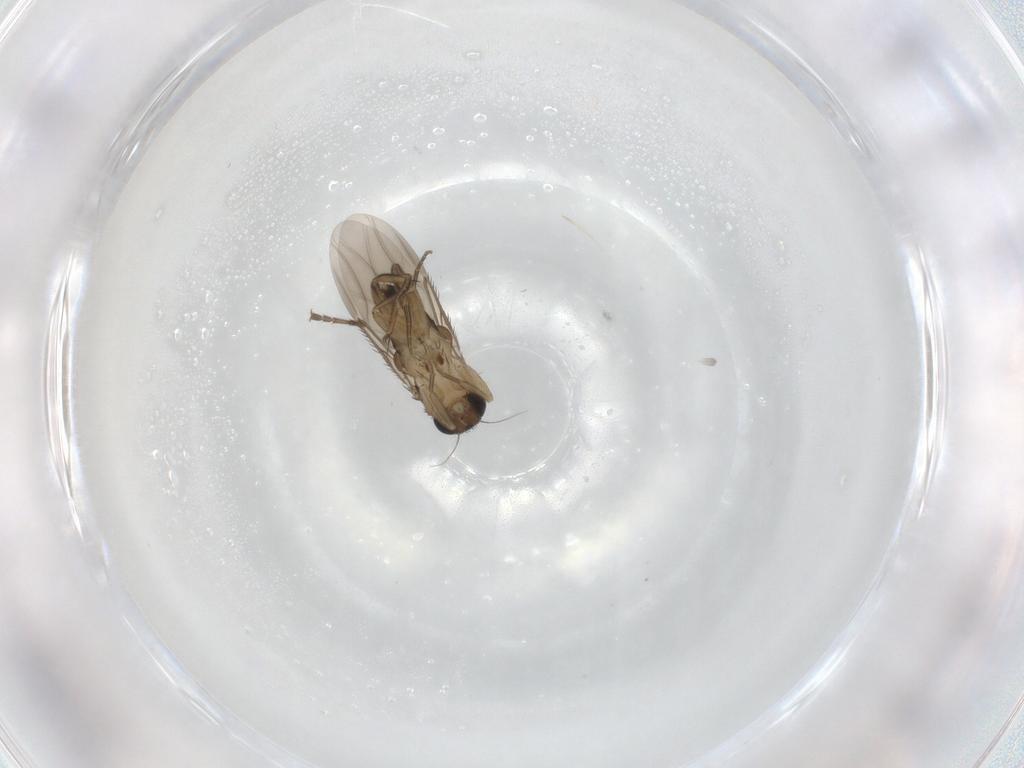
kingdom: Animalia
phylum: Arthropoda
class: Insecta
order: Diptera
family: Phoridae
